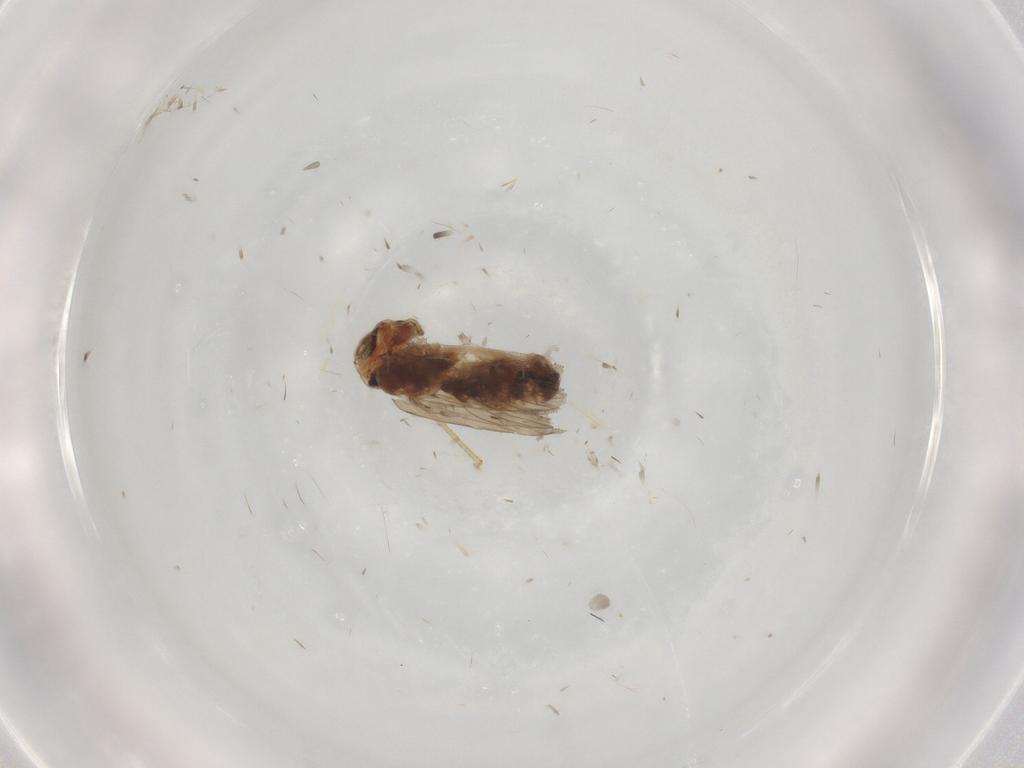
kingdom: Animalia
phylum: Arthropoda
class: Insecta
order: Psocodea
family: Lepidopsocidae
